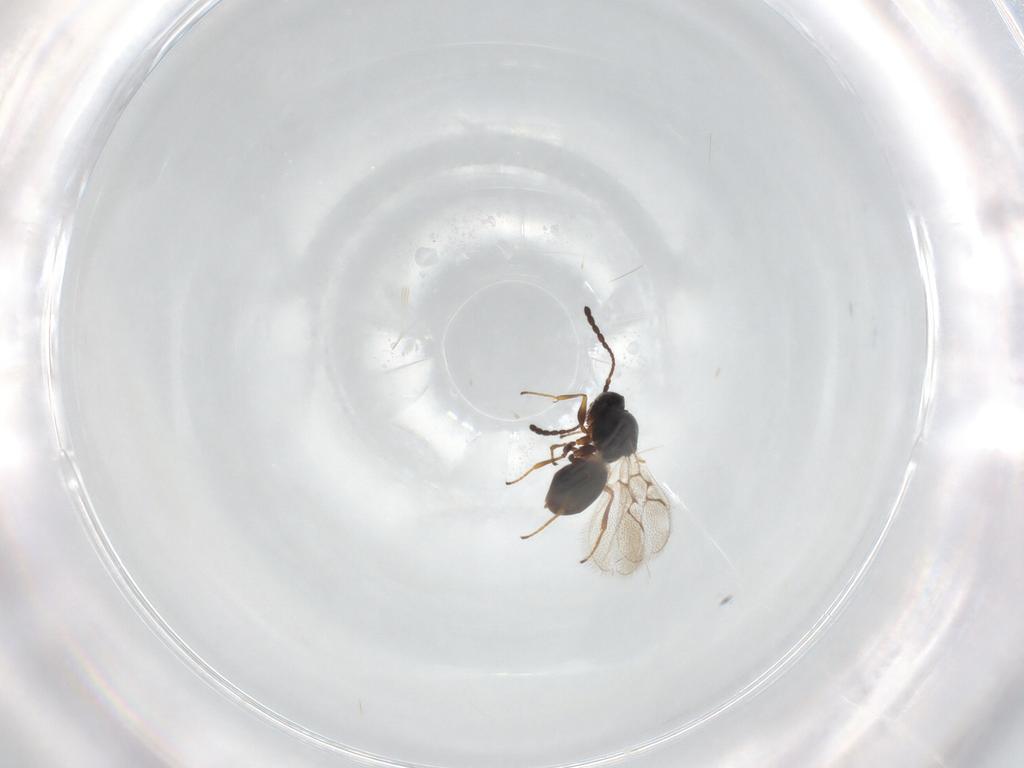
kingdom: Animalia
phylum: Arthropoda
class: Insecta
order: Hymenoptera
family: Figitidae
